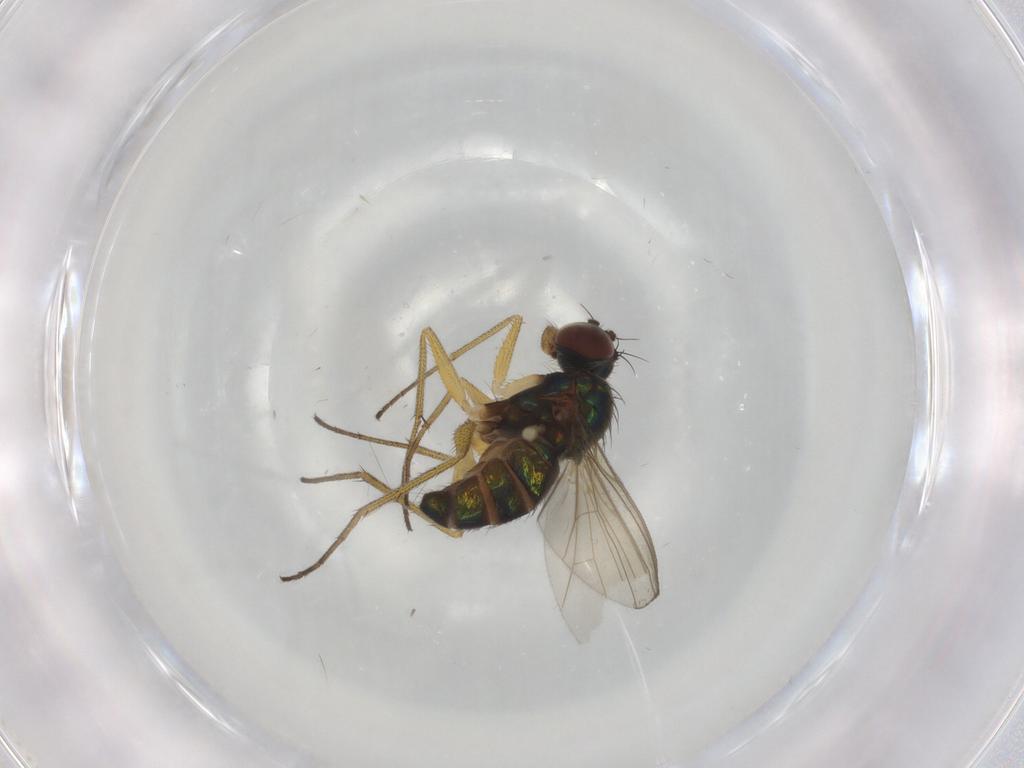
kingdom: Animalia
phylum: Arthropoda
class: Insecta
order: Diptera
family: Dolichopodidae
